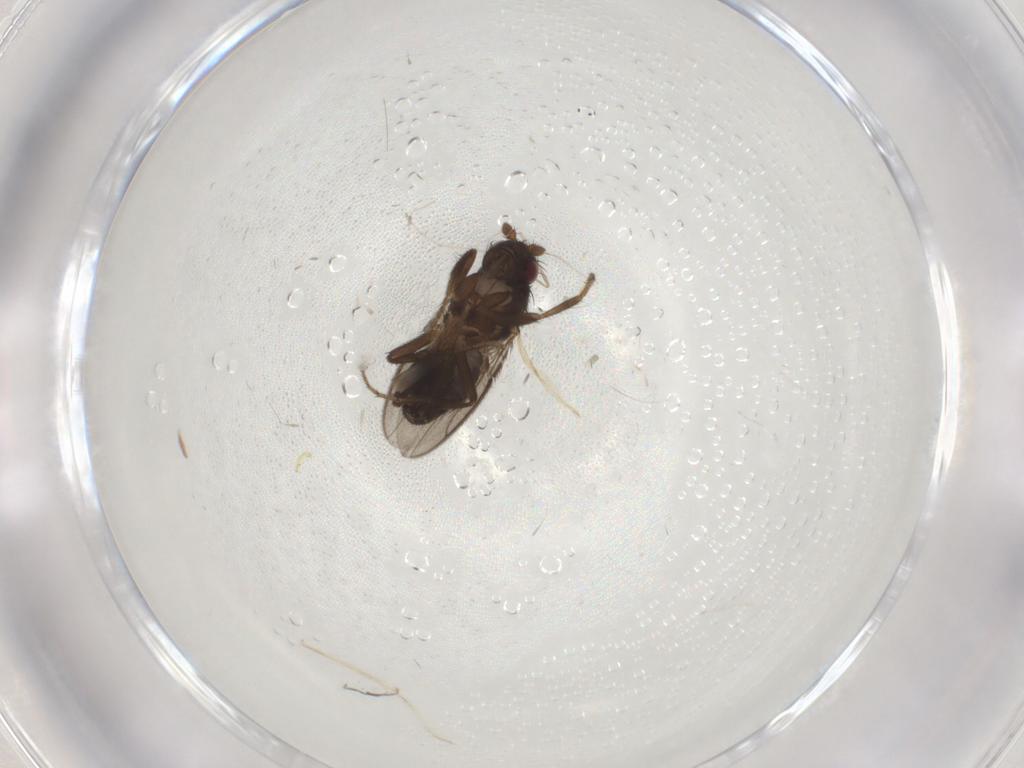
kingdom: Animalia
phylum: Arthropoda
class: Insecta
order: Diptera
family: Cecidomyiidae
